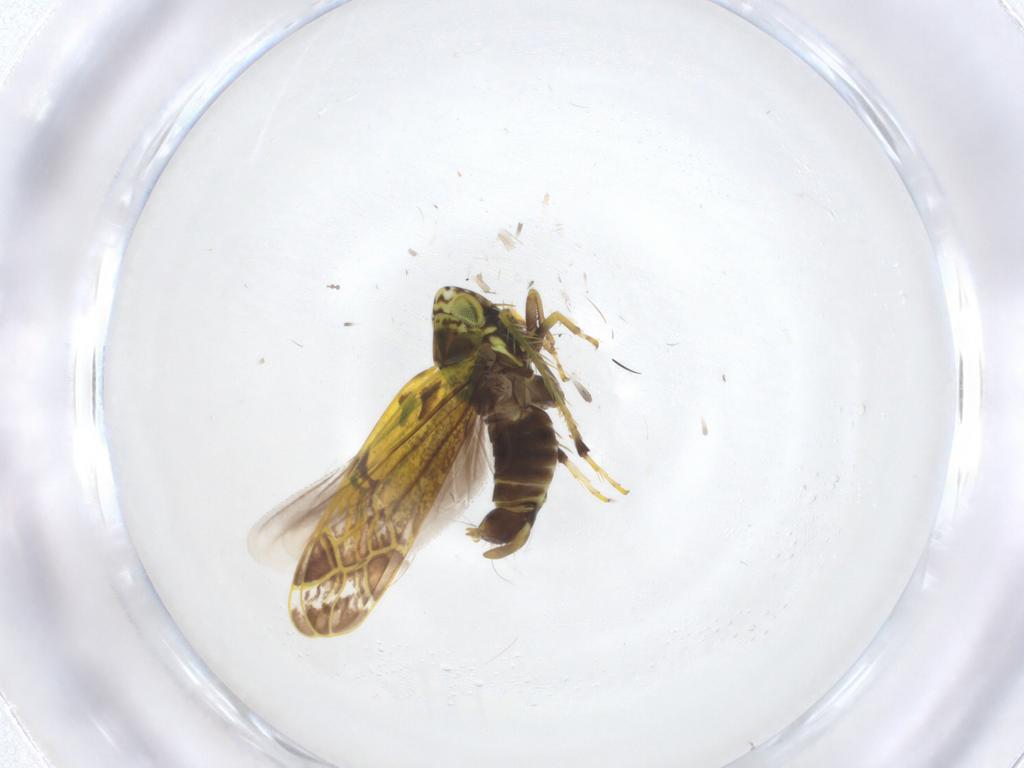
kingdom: Animalia
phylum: Arthropoda
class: Insecta
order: Hemiptera
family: Cicadellidae
